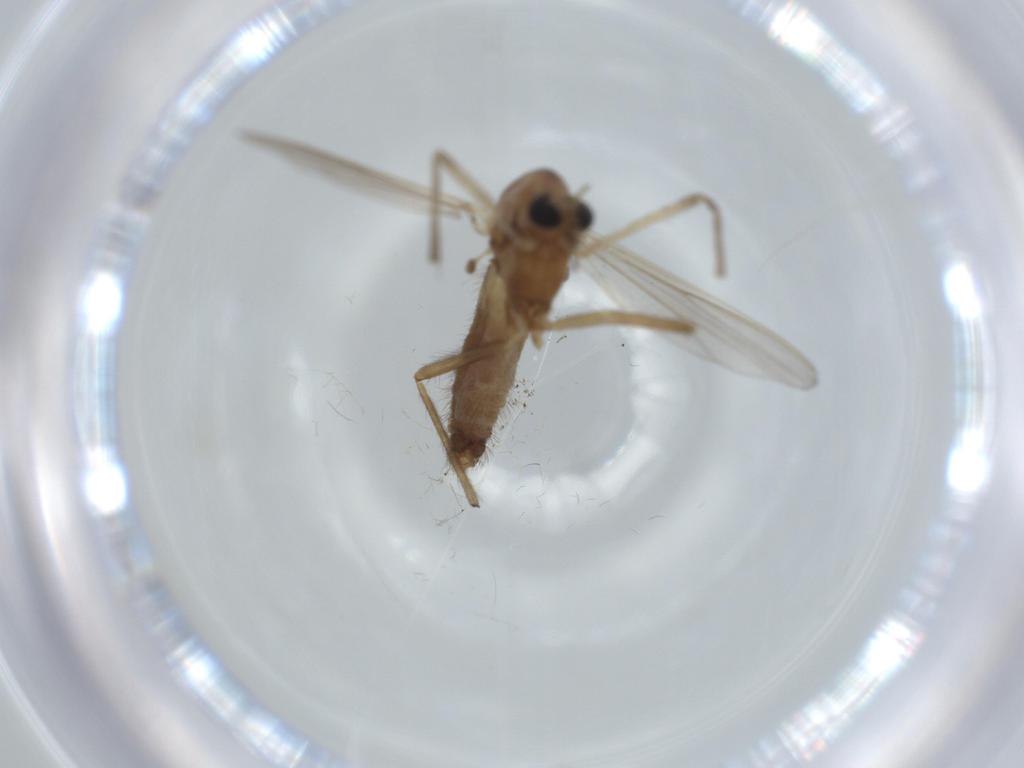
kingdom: Animalia
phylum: Arthropoda
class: Insecta
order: Diptera
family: Chironomidae
